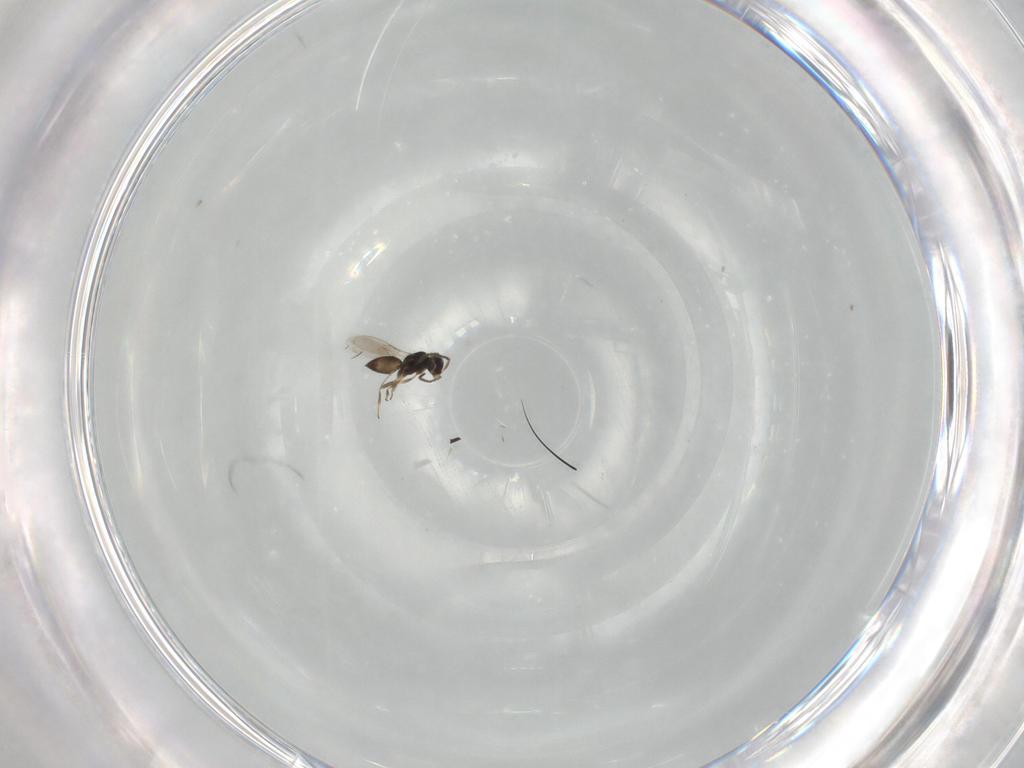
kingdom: Animalia
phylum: Arthropoda
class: Insecta
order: Hymenoptera
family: Scelionidae
